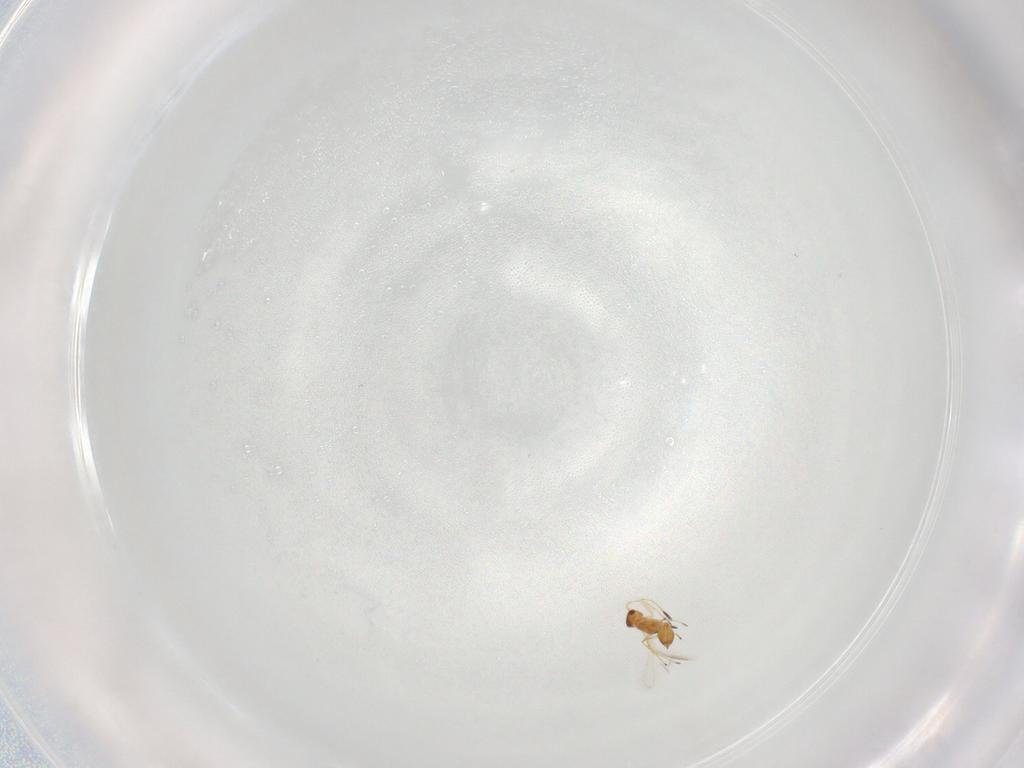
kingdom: Animalia
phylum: Arthropoda
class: Insecta
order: Hymenoptera
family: Mymaridae
